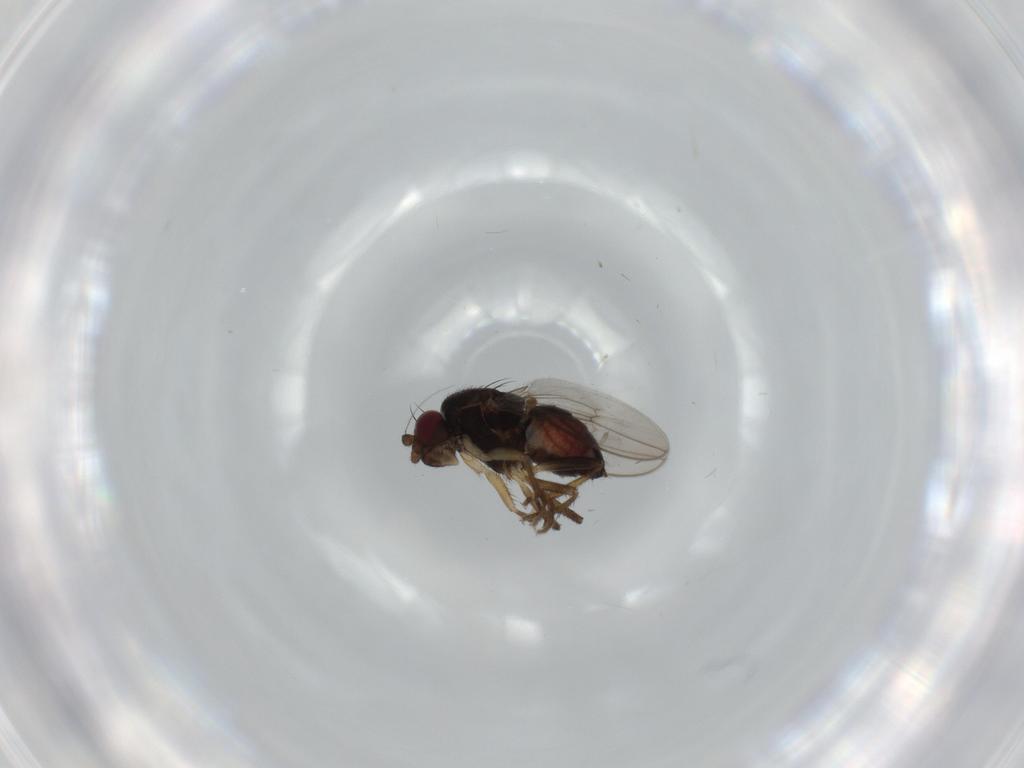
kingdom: Animalia
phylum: Arthropoda
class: Insecta
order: Diptera
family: Sphaeroceridae
